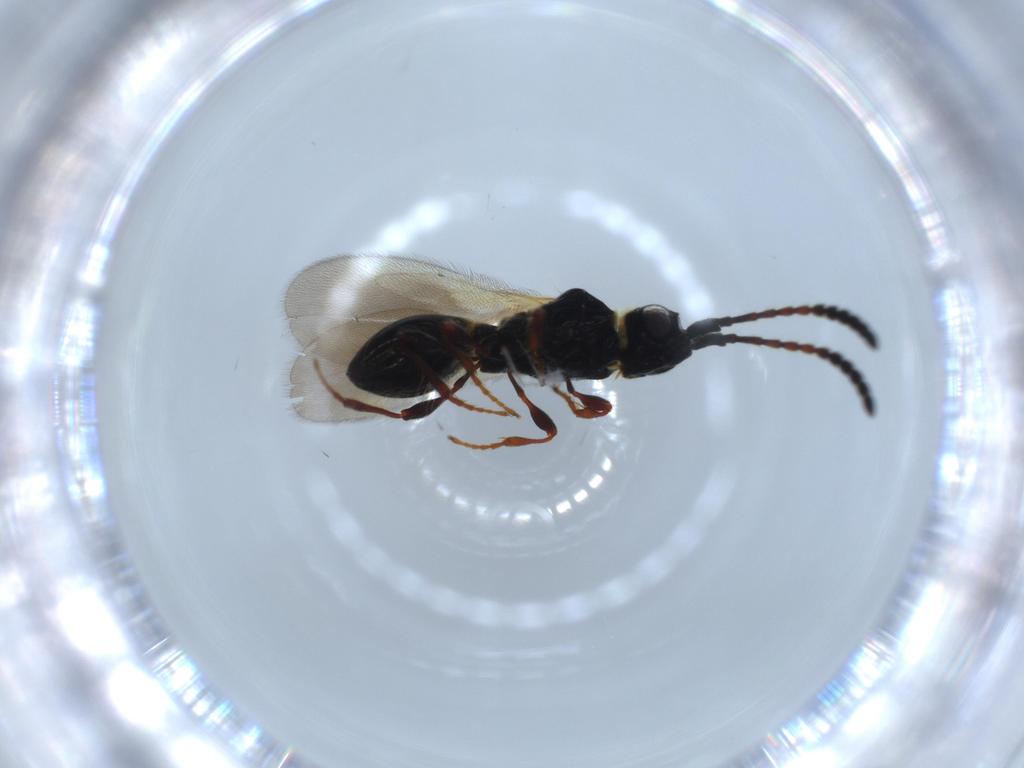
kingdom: Animalia
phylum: Arthropoda
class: Insecta
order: Hymenoptera
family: Diapriidae
